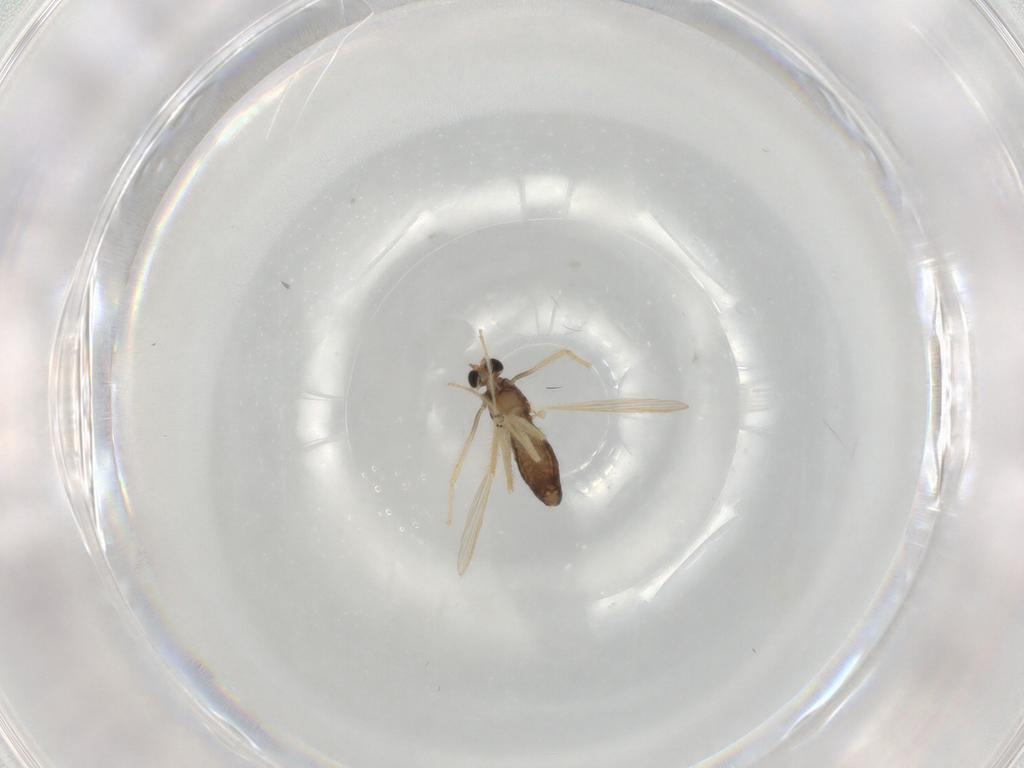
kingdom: Animalia
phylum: Arthropoda
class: Insecta
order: Diptera
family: Chironomidae
